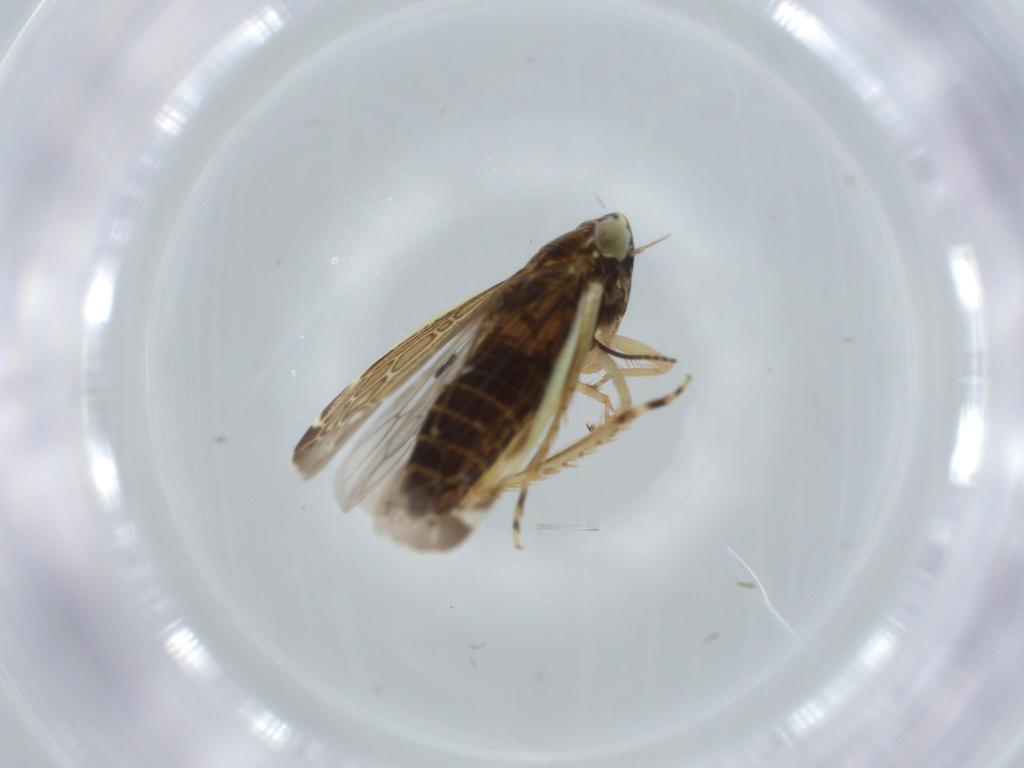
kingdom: Animalia
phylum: Arthropoda
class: Insecta
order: Hemiptera
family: Cicadellidae
